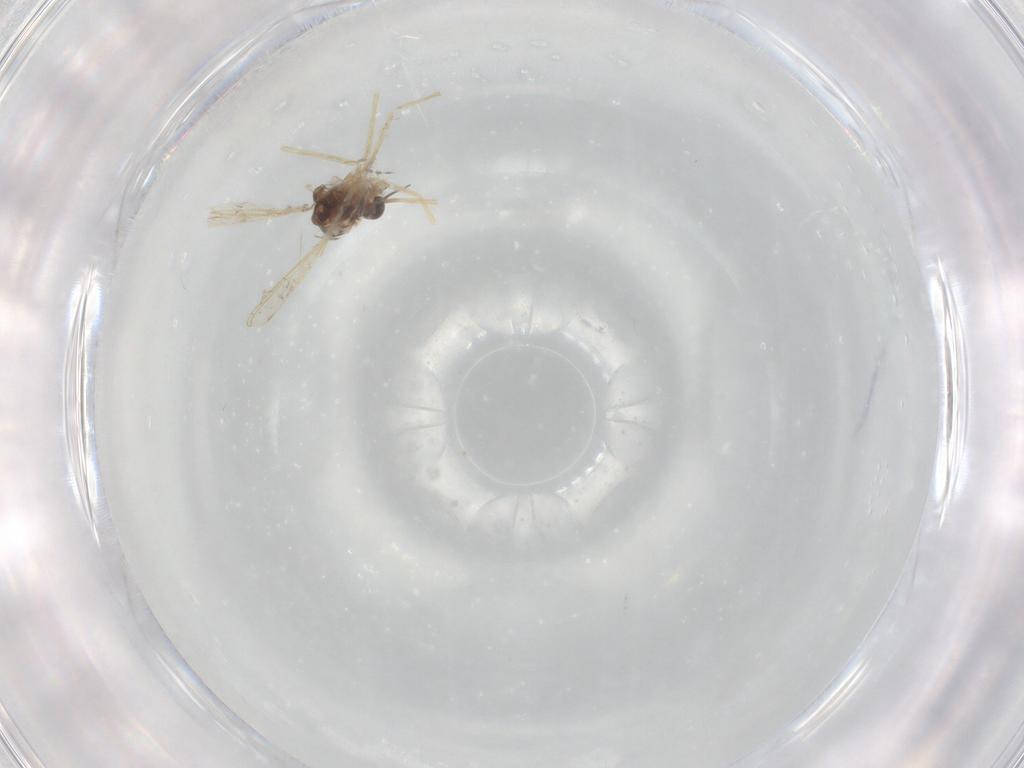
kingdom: Animalia
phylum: Arthropoda
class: Insecta
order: Diptera
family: Chironomidae
